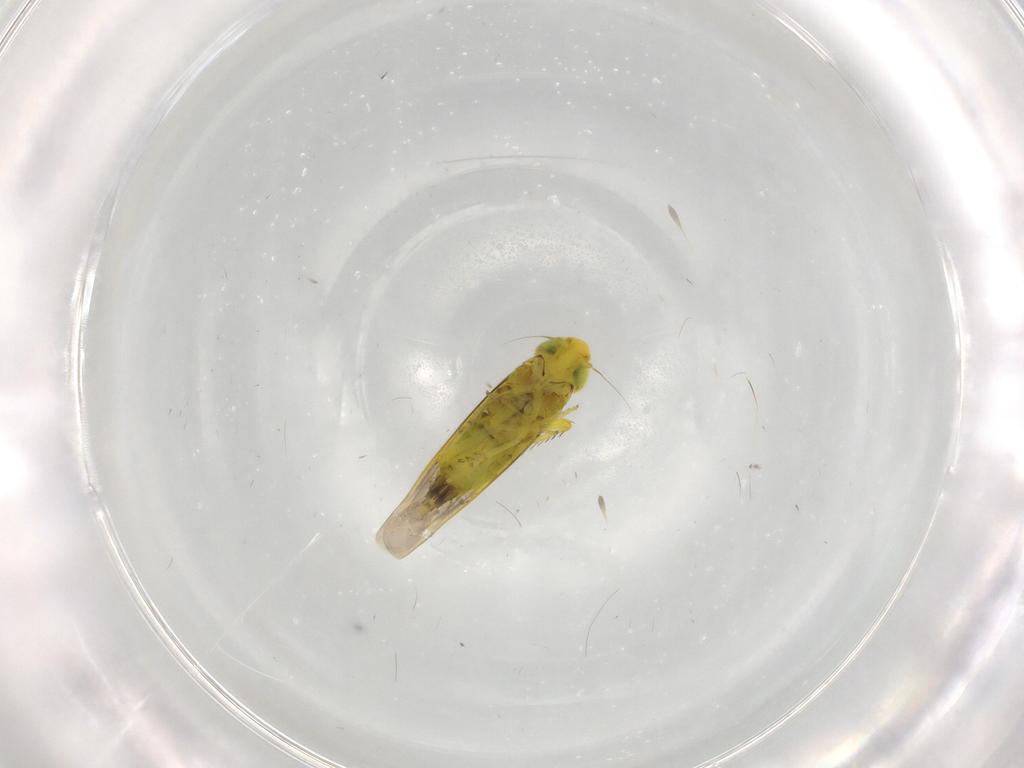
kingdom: Animalia
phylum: Arthropoda
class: Insecta
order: Hemiptera
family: Cicadellidae
